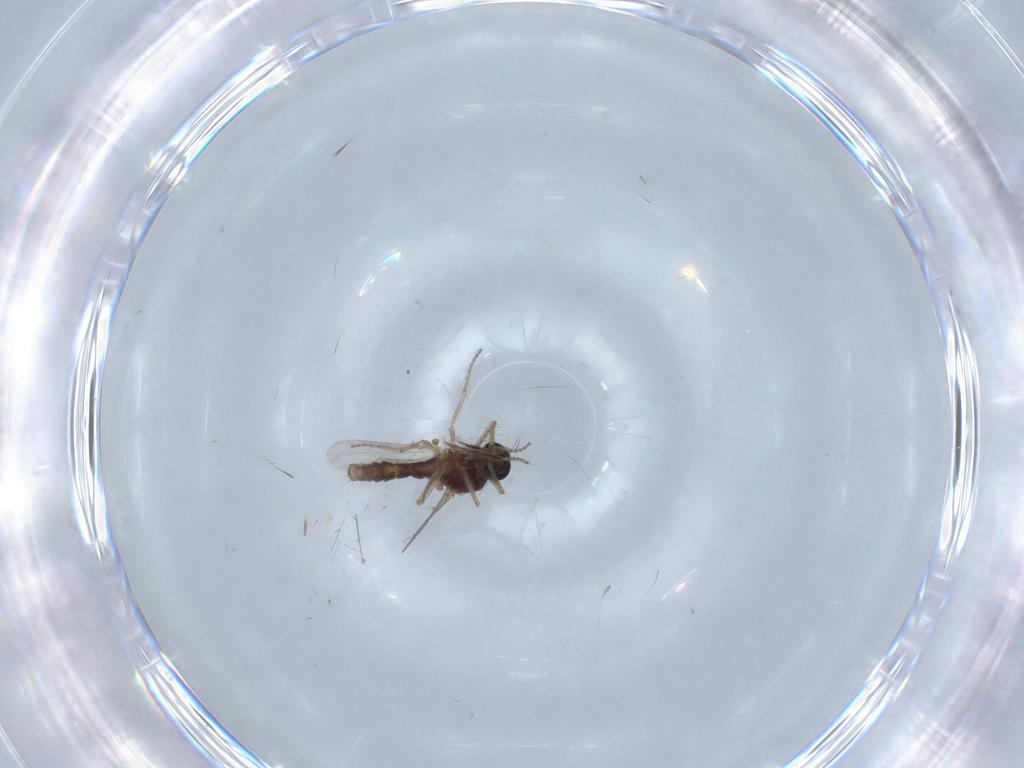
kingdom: Animalia
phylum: Arthropoda
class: Insecta
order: Diptera
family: Ceratopogonidae
